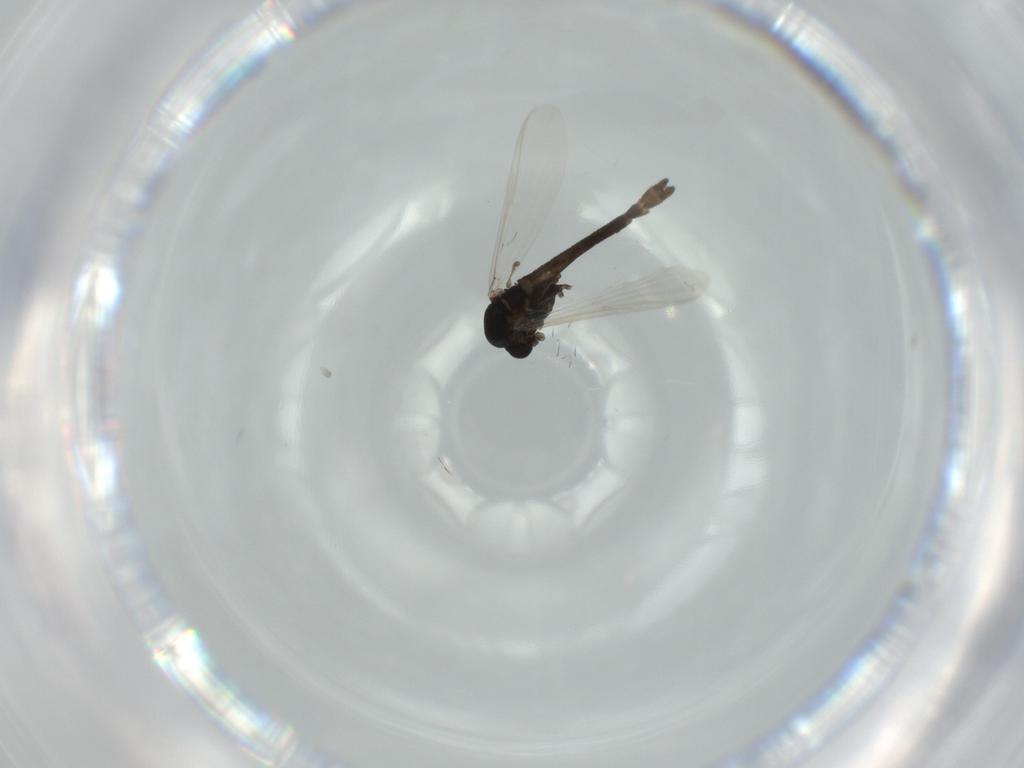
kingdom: Animalia
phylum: Arthropoda
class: Insecta
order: Diptera
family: Chironomidae
